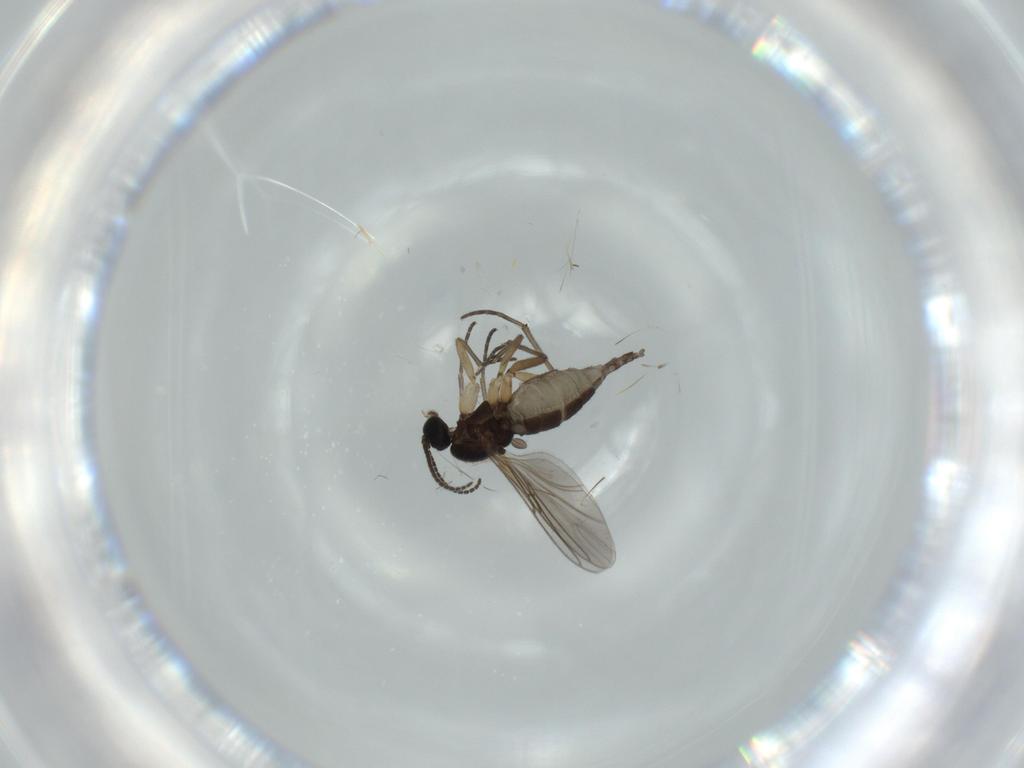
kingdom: Animalia
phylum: Arthropoda
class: Insecta
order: Diptera
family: Sciaridae
